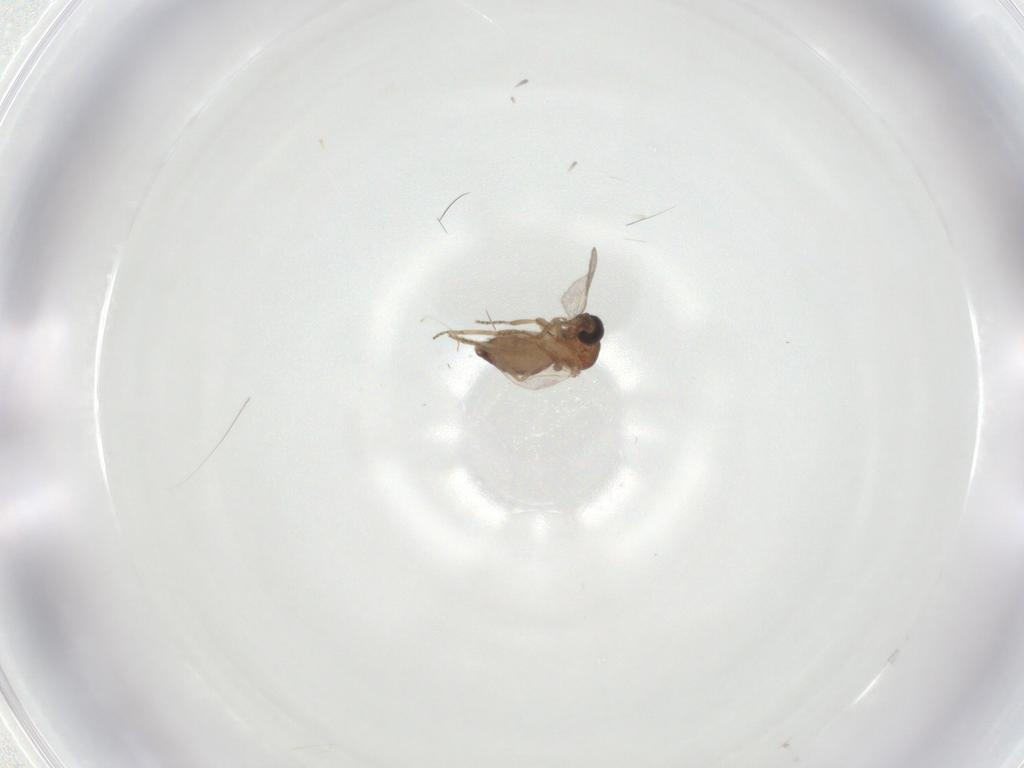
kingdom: Animalia
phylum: Arthropoda
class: Insecta
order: Diptera
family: Ceratopogonidae
